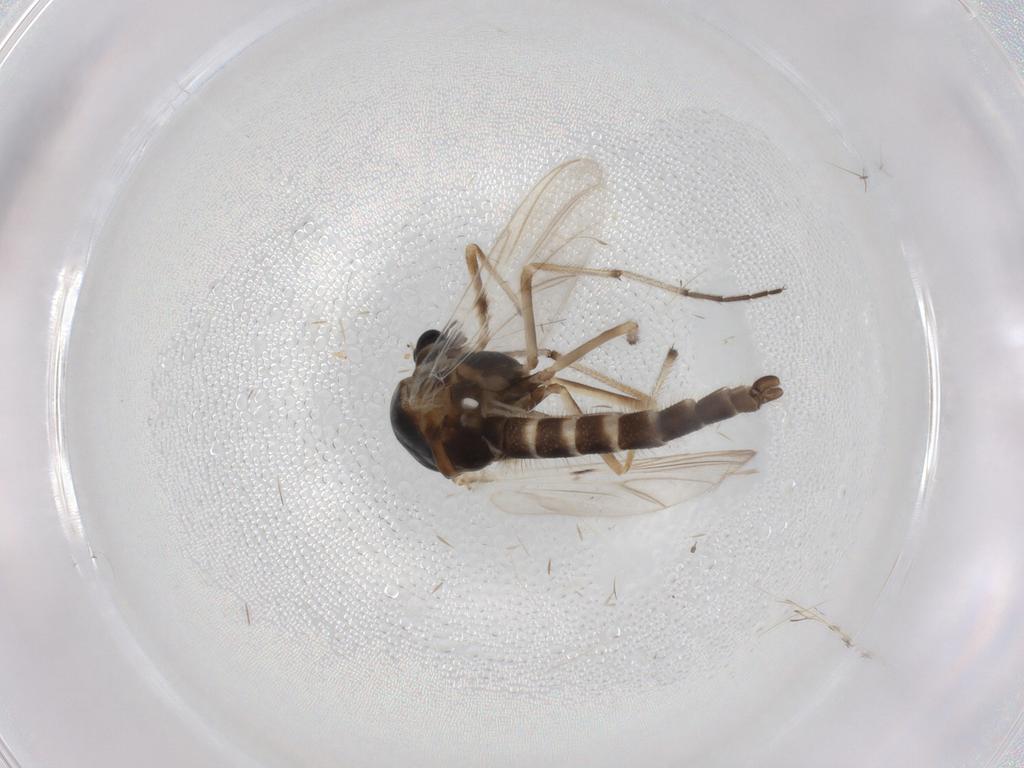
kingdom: Animalia
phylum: Arthropoda
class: Insecta
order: Diptera
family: Chironomidae
